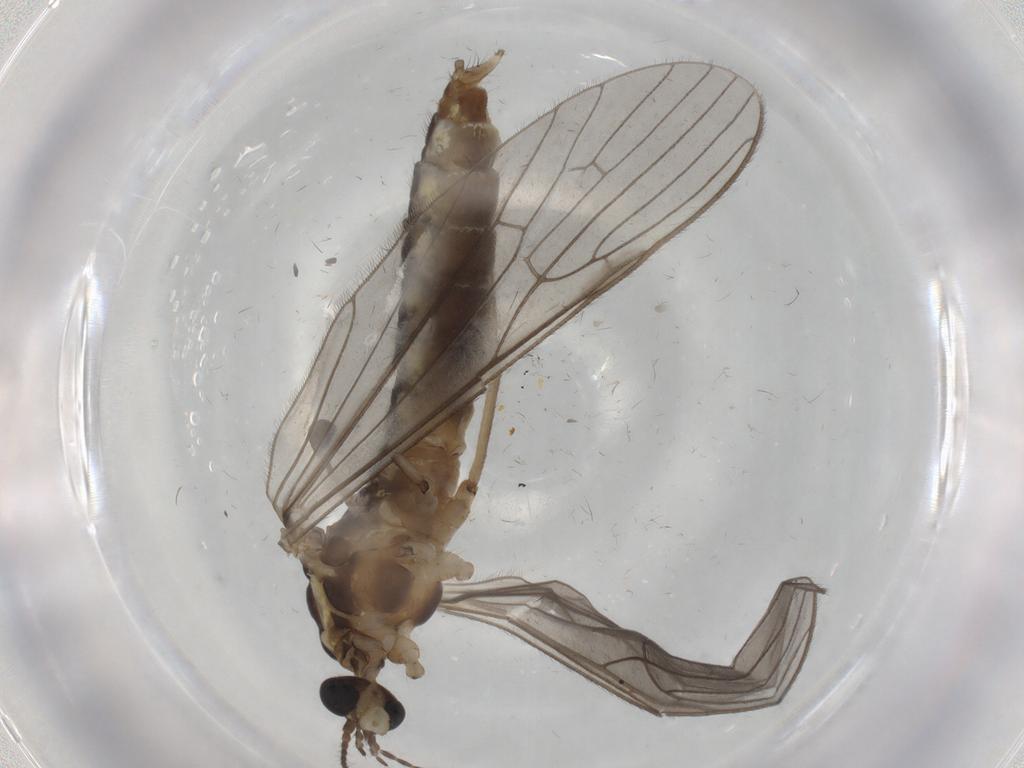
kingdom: Animalia
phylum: Arthropoda
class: Insecta
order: Diptera
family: Limoniidae
